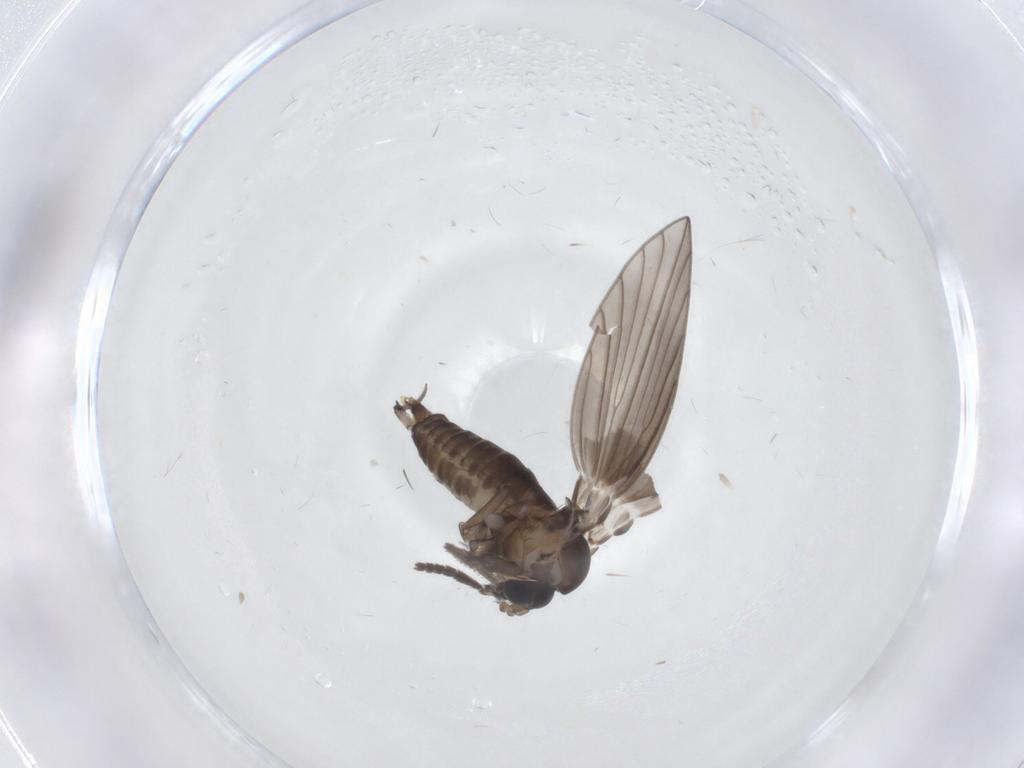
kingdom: Animalia
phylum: Arthropoda
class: Insecta
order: Diptera
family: Psychodidae
